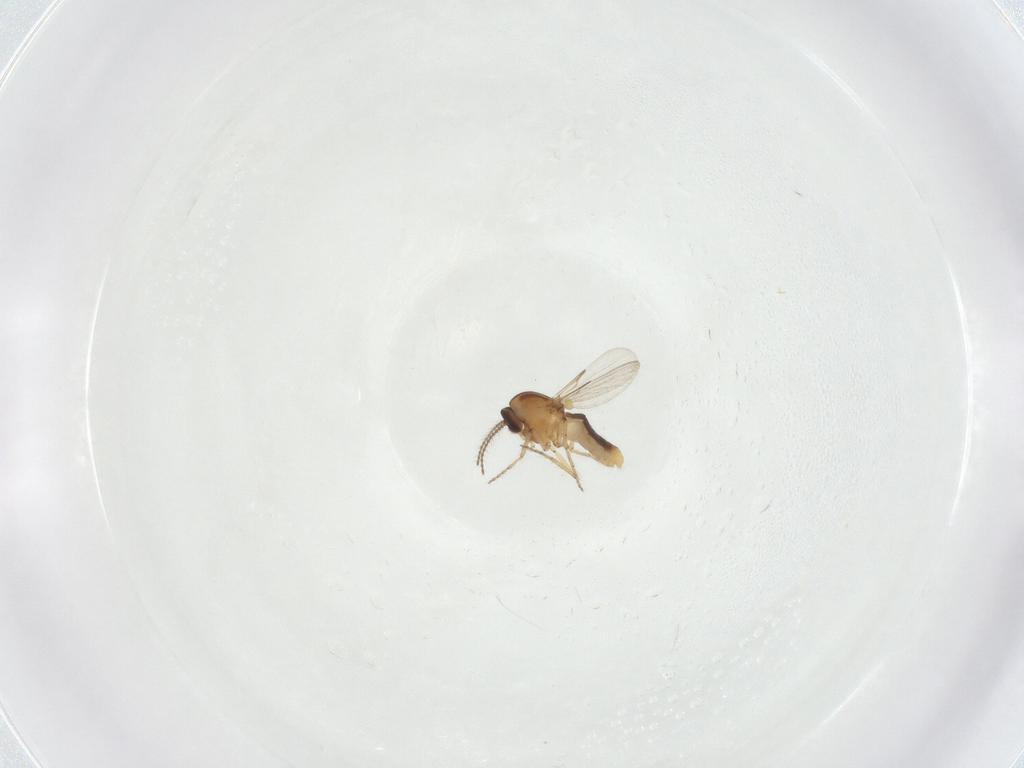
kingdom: Animalia
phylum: Arthropoda
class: Insecta
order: Diptera
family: Ceratopogonidae
